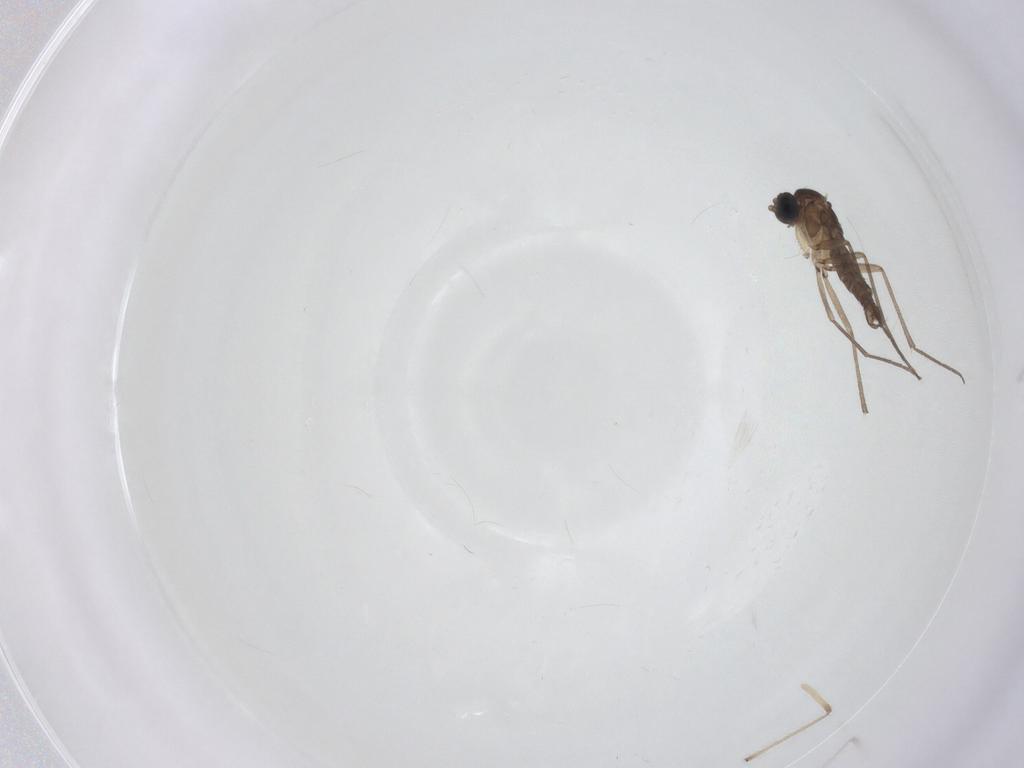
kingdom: Animalia
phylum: Arthropoda
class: Insecta
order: Diptera
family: Sciaridae
